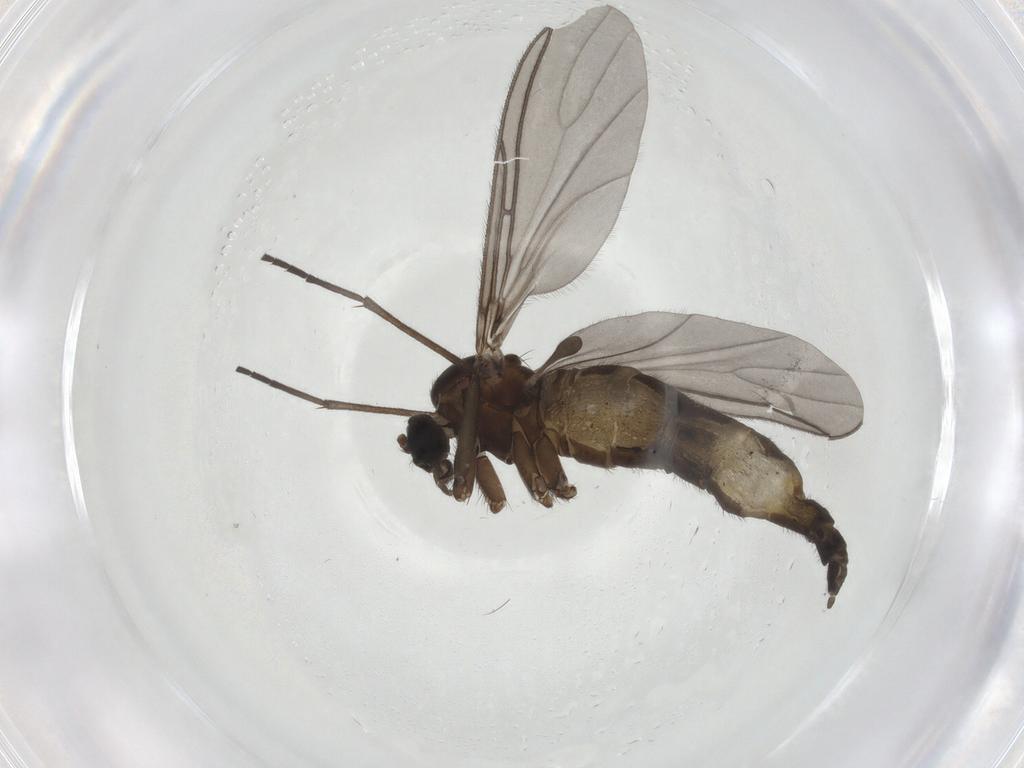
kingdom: Animalia
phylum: Arthropoda
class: Insecta
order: Diptera
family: Sciaridae
